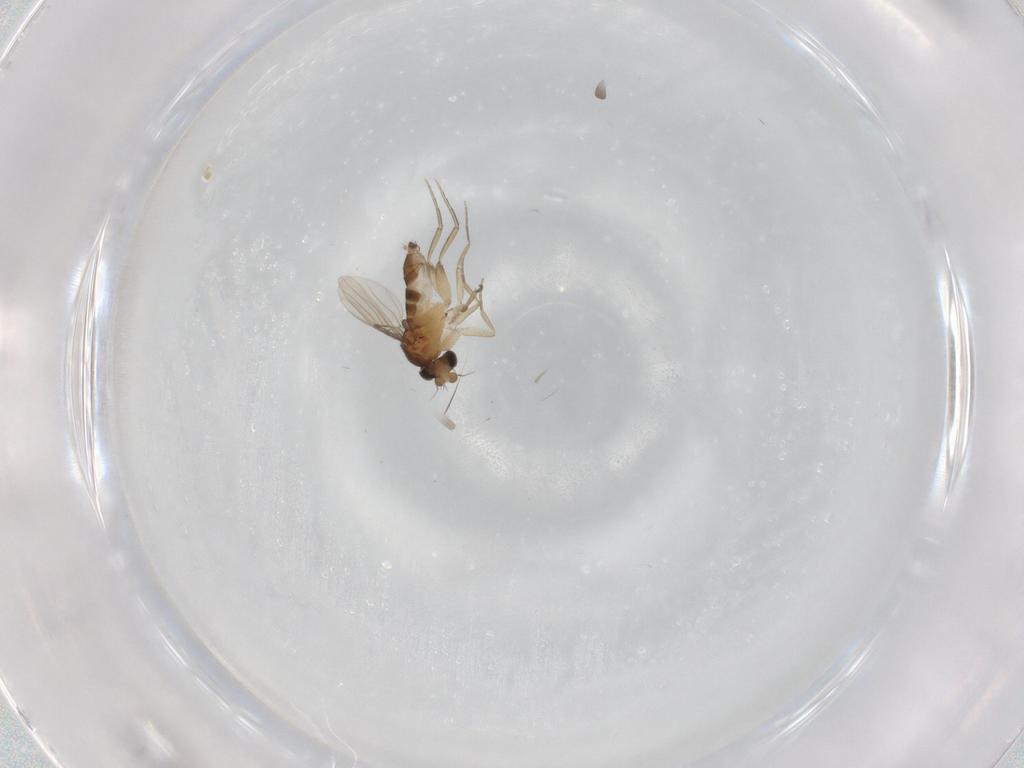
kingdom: Animalia
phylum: Arthropoda
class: Insecta
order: Diptera
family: Phoridae
